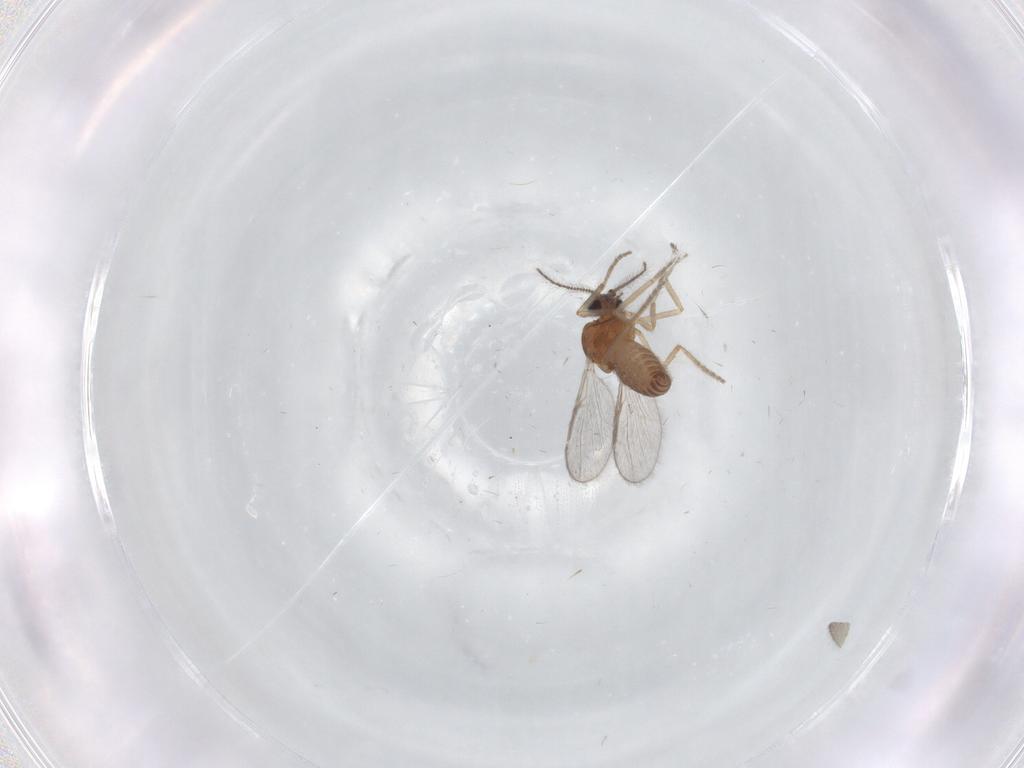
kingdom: Animalia
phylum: Arthropoda
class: Insecta
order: Diptera
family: Ceratopogonidae
